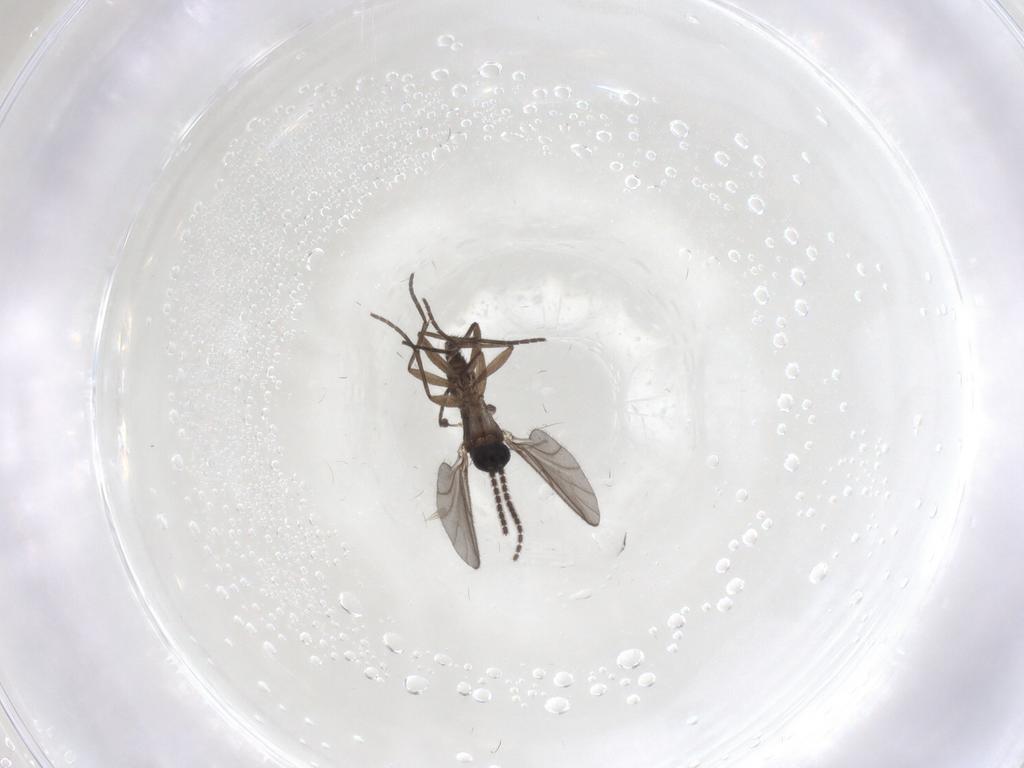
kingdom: Animalia
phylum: Arthropoda
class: Insecta
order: Diptera
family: Sciaridae
